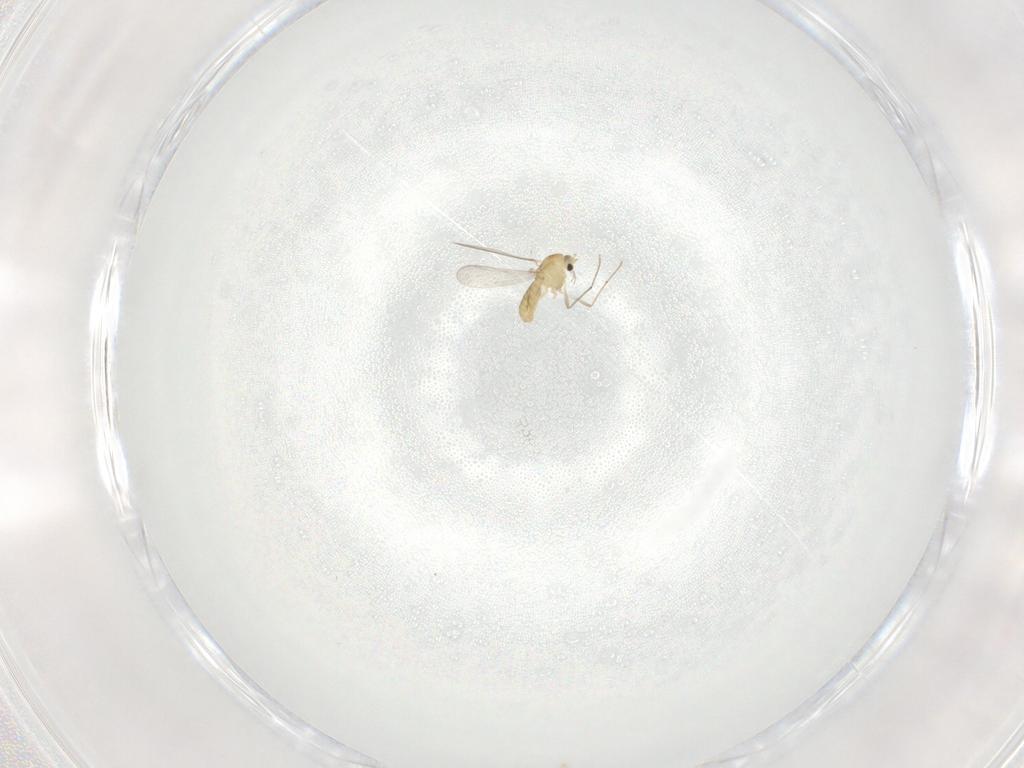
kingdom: Animalia
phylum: Arthropoda
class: Insecta
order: Diptera
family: Chironomidae
